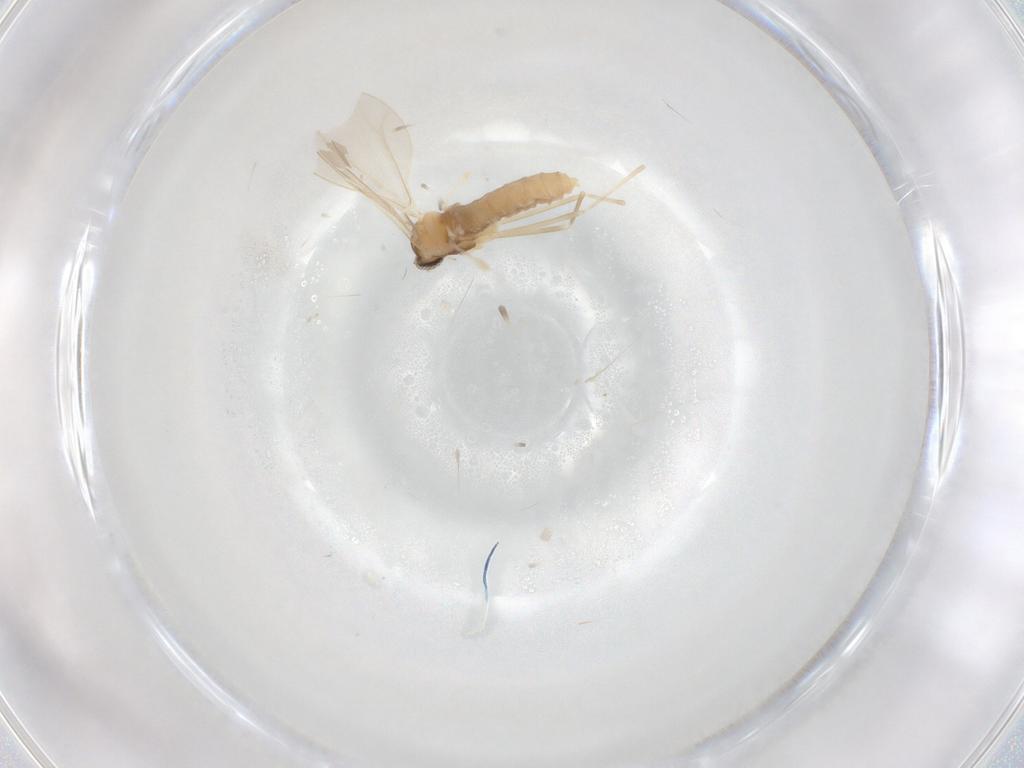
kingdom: Animalia
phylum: Arthropoda
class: Insecta
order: Diptera
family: Cecidomyiidae
